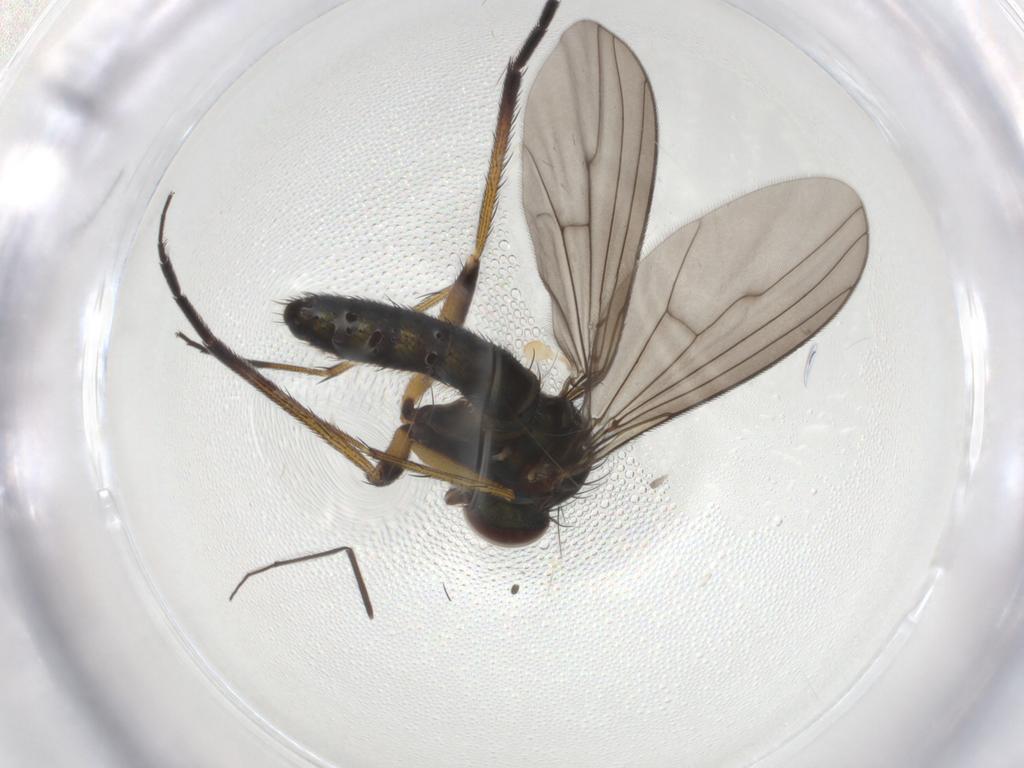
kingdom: Animalia
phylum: Arthropoda
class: Insecta
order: Diptera
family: Dolichopodidae
